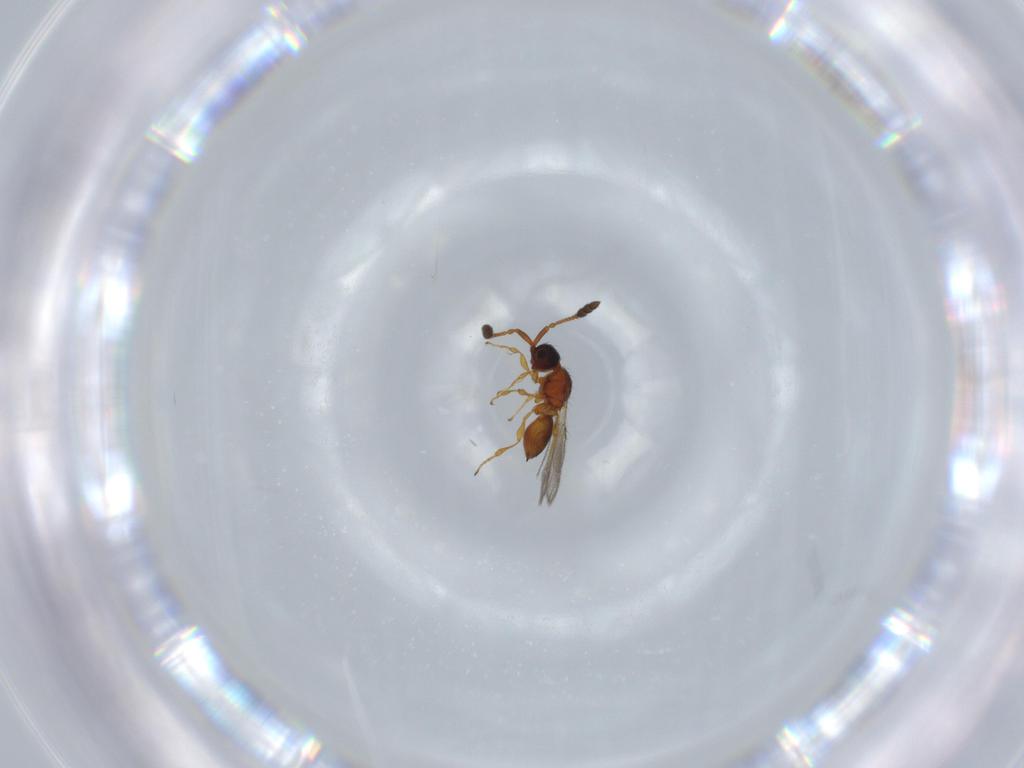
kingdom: Animalia
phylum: Arthropoda
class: Insecta
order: Hymenoptera
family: Diapriidae
